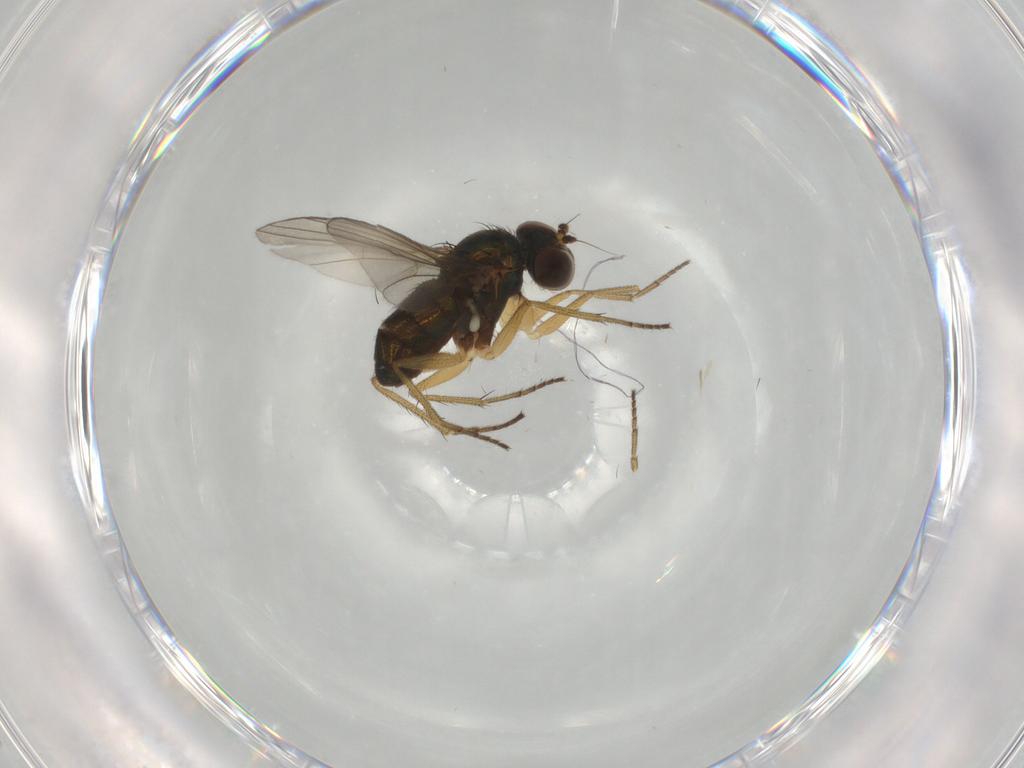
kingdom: Animalia
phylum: Arthropoda
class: Insecta
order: Diptera
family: Dolichopodidae
